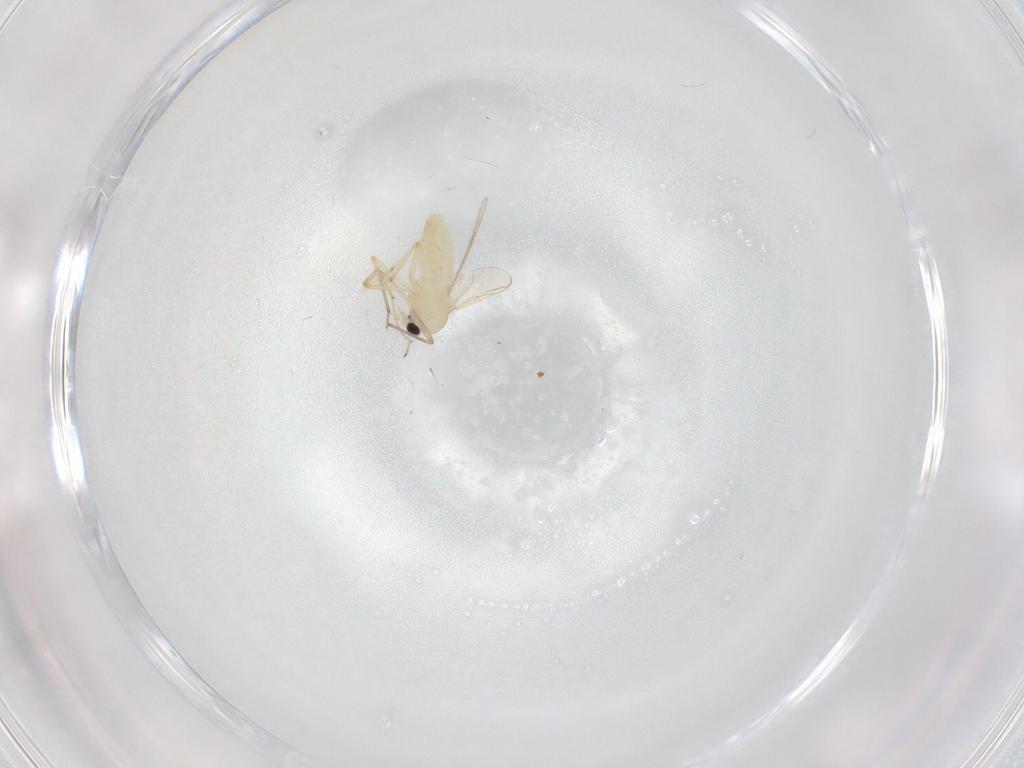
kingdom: Animalia
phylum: Arthropoda
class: Insecta
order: Diptera
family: Chironomidae
